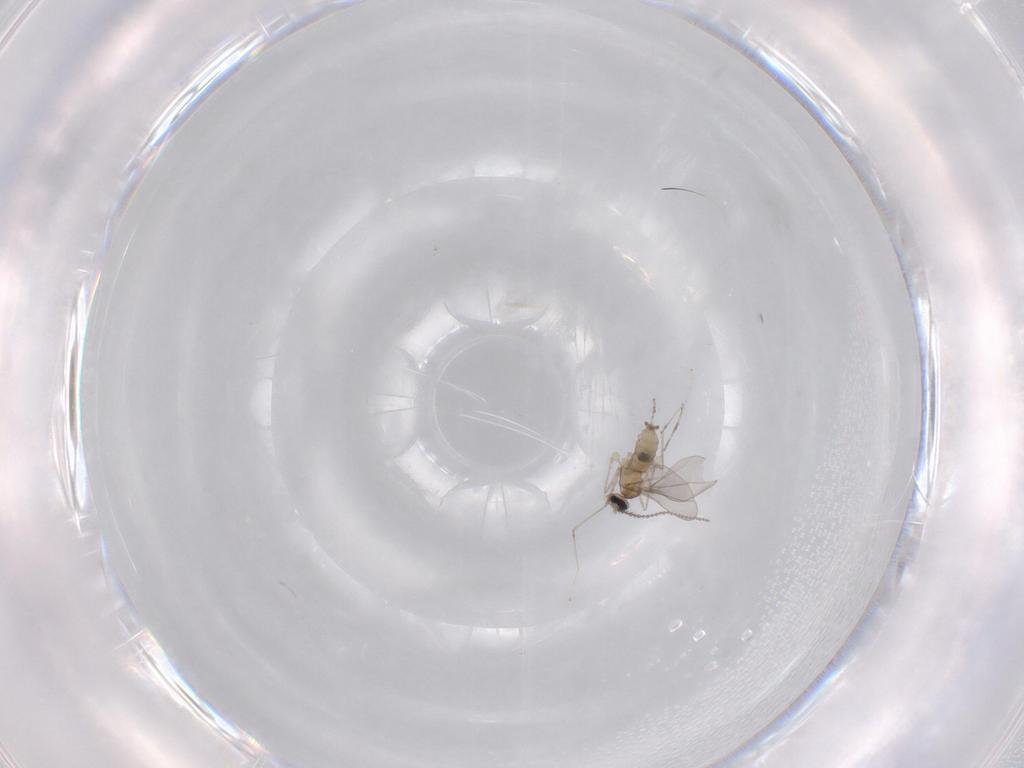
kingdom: Animalia
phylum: Arthropoda
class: Insecta
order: Diptera
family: Cecidomyiidae
